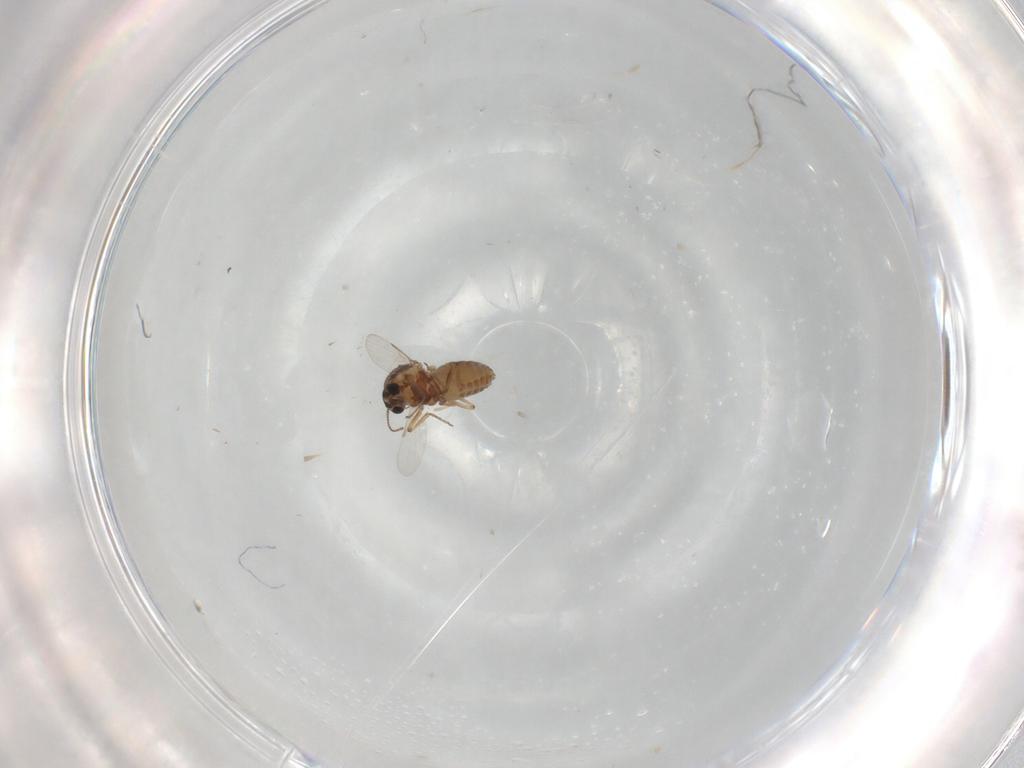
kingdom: Animalia
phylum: Arthropoda
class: Insecta
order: Diptera
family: Ceratopogonidae
